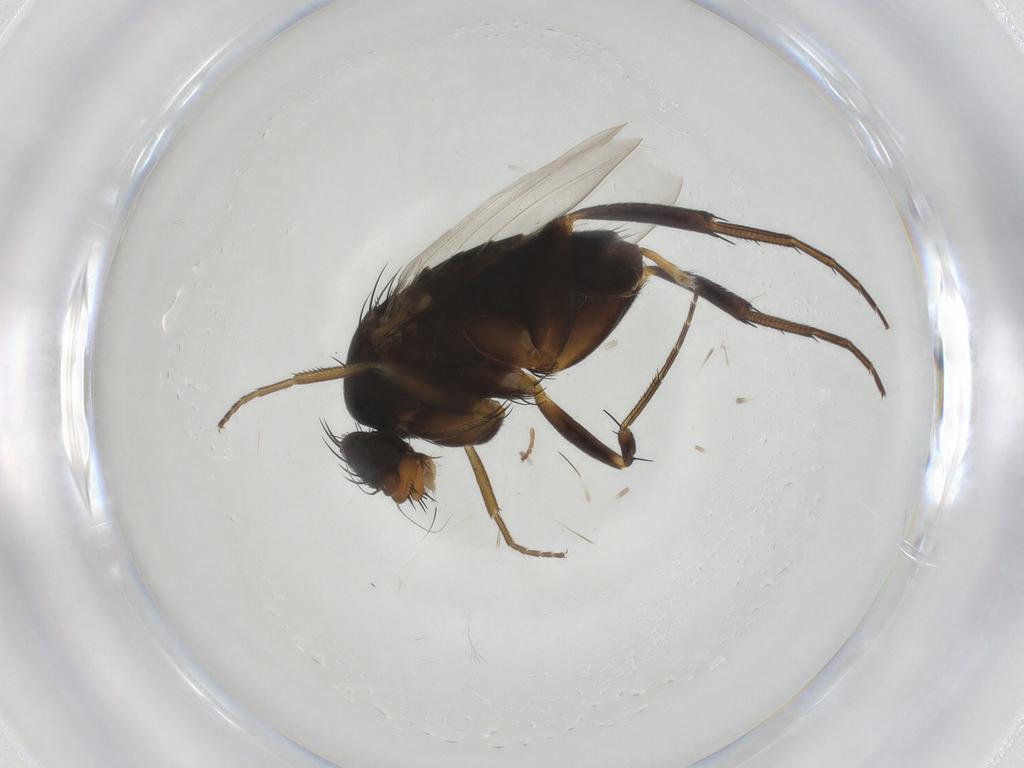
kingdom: Animalia
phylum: Arthropoda
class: Insecta
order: Diptera
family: Phoridae
